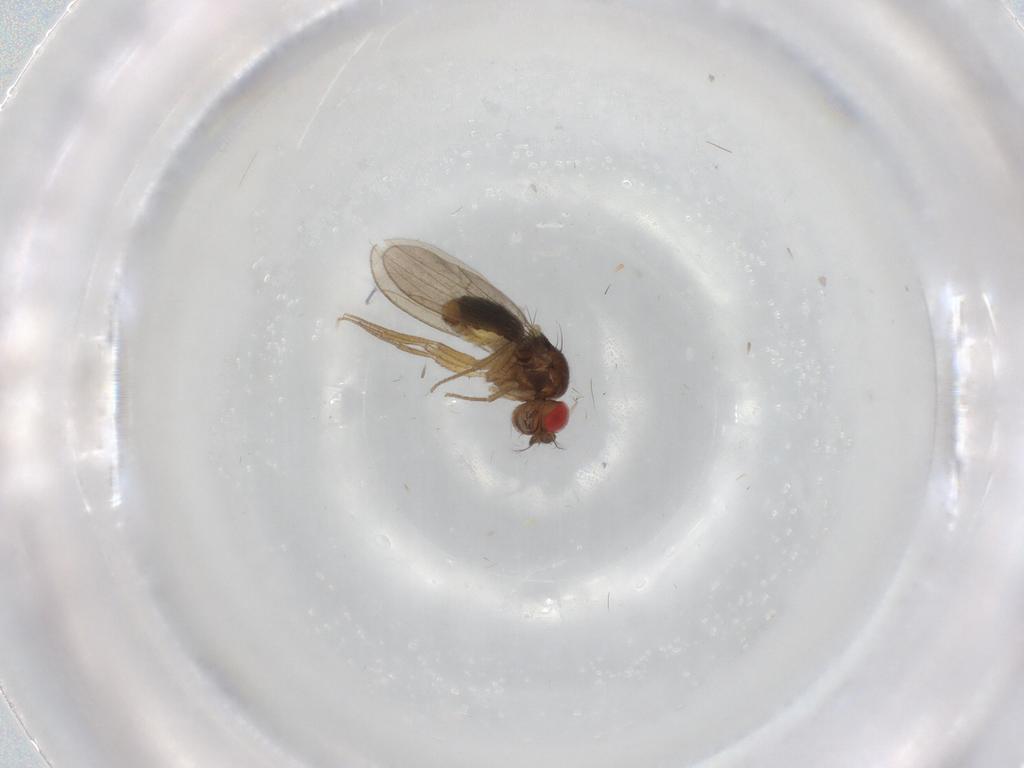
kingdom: Animalia
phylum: Arthropoda
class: Insecta
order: Diptera
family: Drosophilidae
